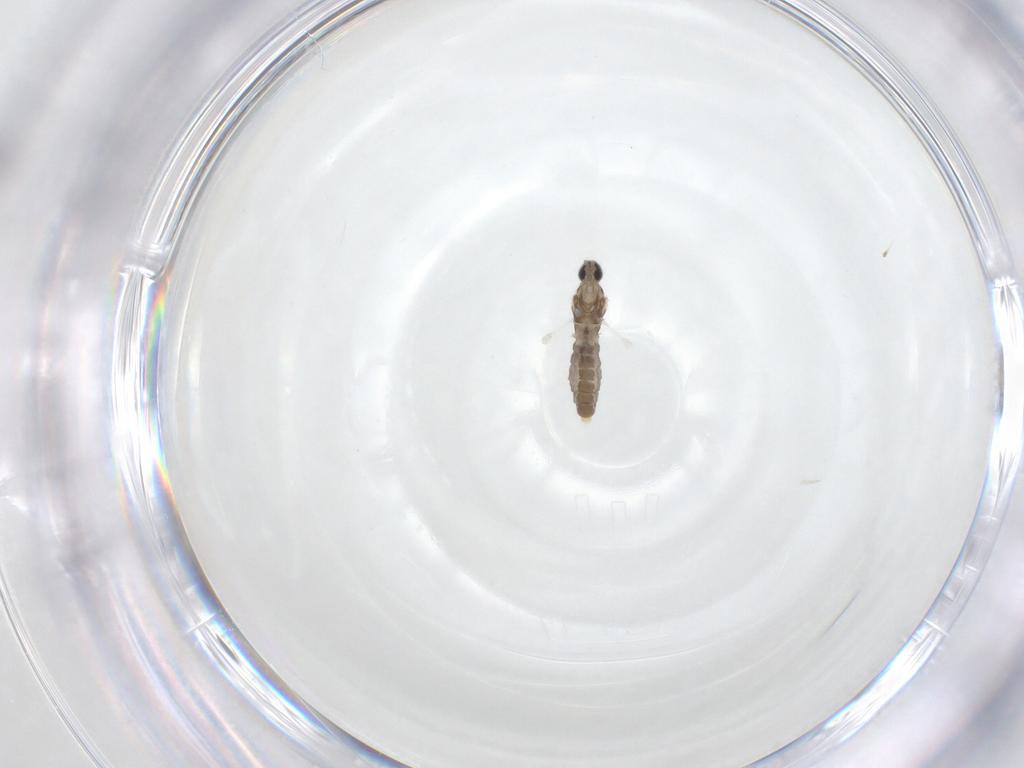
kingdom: Animalia
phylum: Arthropoda
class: Insecta
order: Diptera
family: Cecidomyiidae
